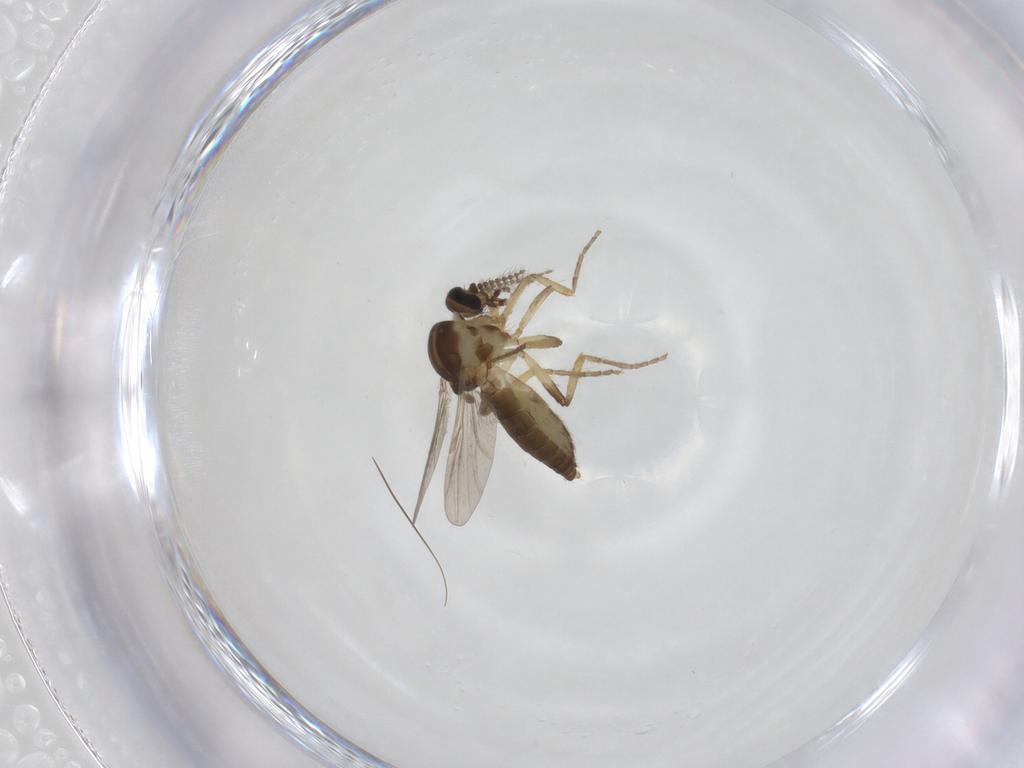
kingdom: Animalia
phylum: Arthropoda
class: Insecta
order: Diptera
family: Ceratopogonidae
